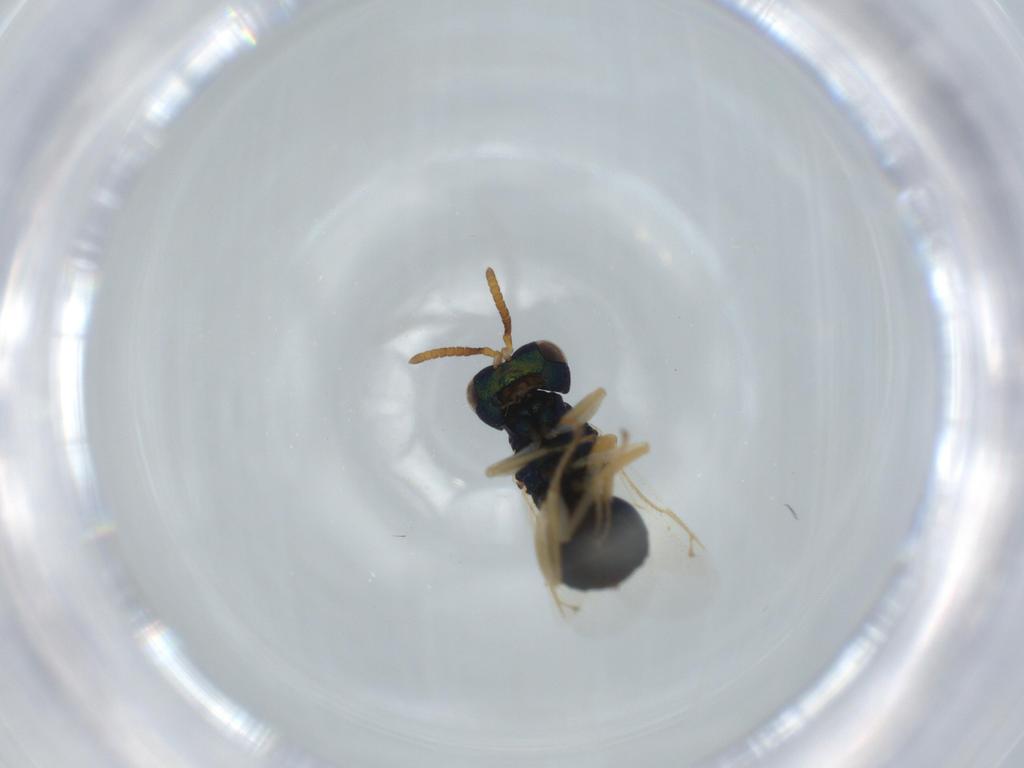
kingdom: Animalia
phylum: Arthropoda
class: Insecta
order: Hymenoptera
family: Pteromalidae
